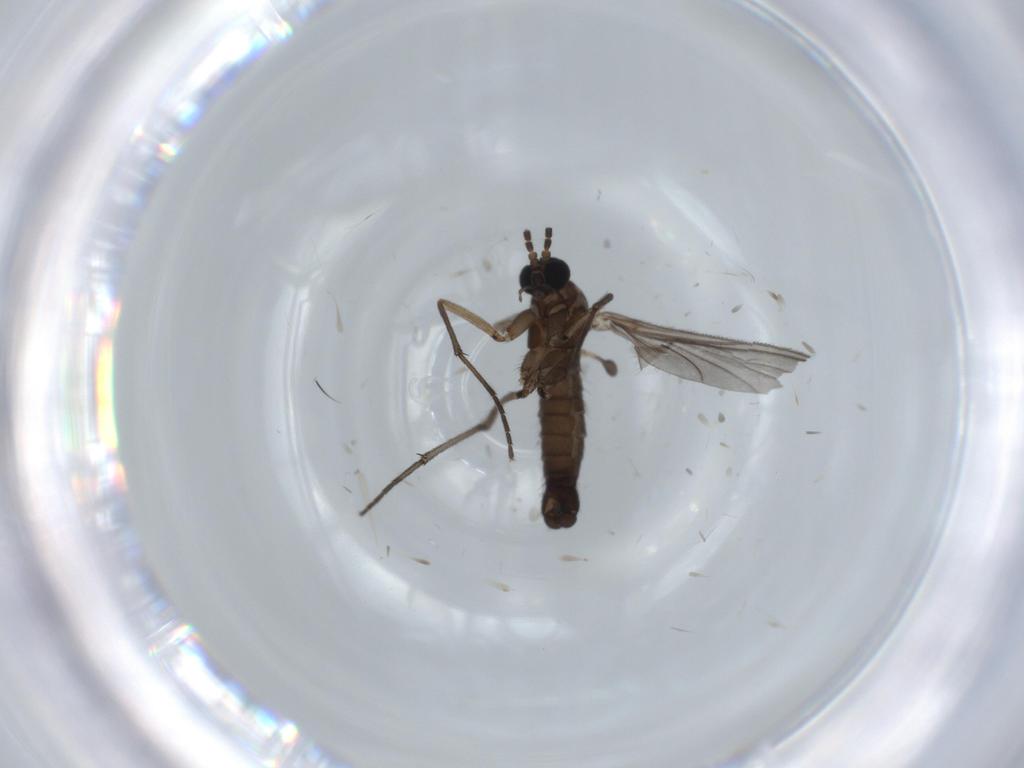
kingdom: Animalia
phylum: Arthropoda
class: Insecta
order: Diptera
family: Sciaridae
